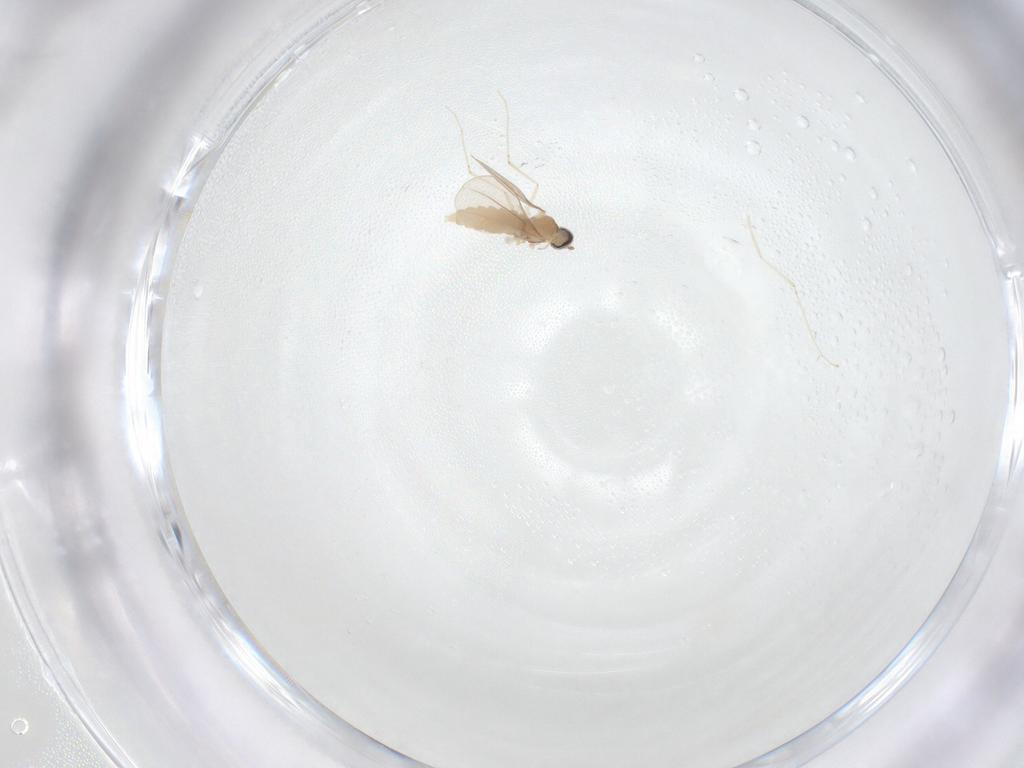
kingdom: Animalia
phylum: Arthropoda
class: Insecta
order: Diptera
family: Cecidomyiidae
